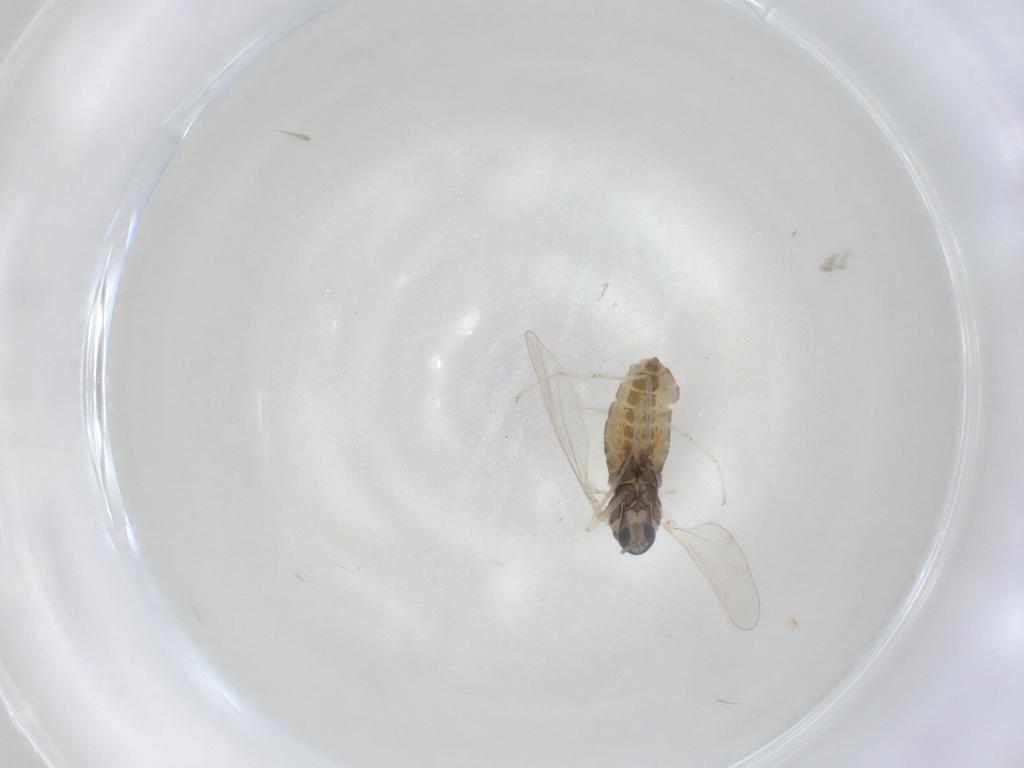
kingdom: Animalia
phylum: Arthropoda
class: Insecta
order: Diptera
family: Cecidomyiidae
